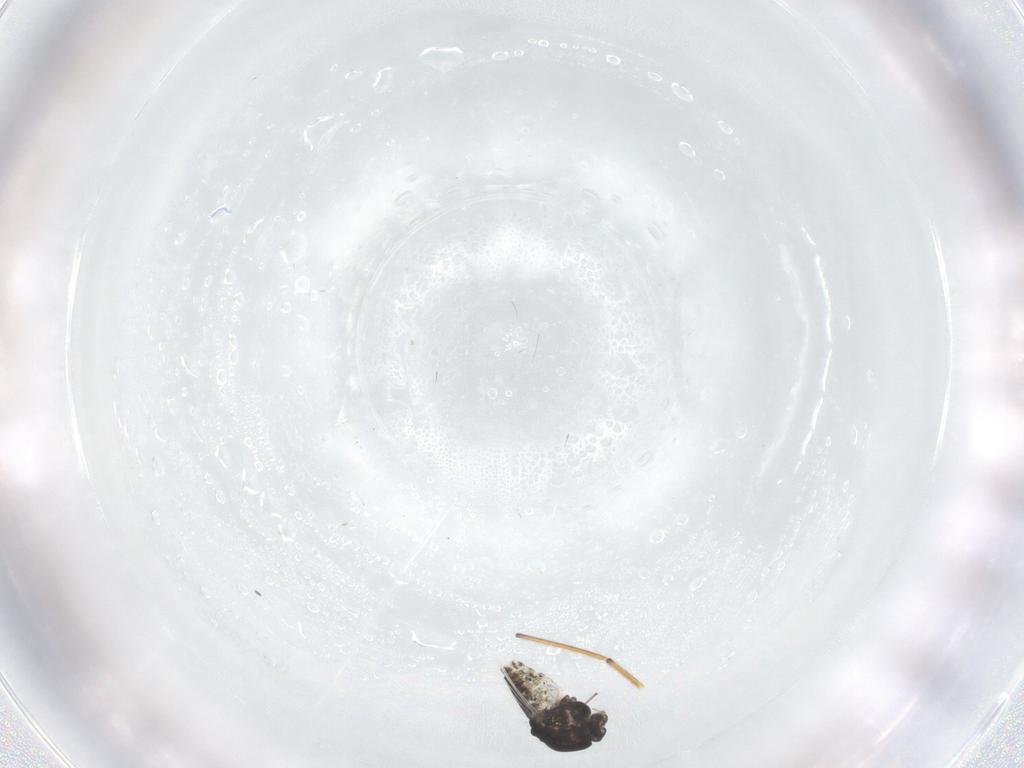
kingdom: Animalia
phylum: Arthropoda
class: Insecta
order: Diptera
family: Chironomidae
